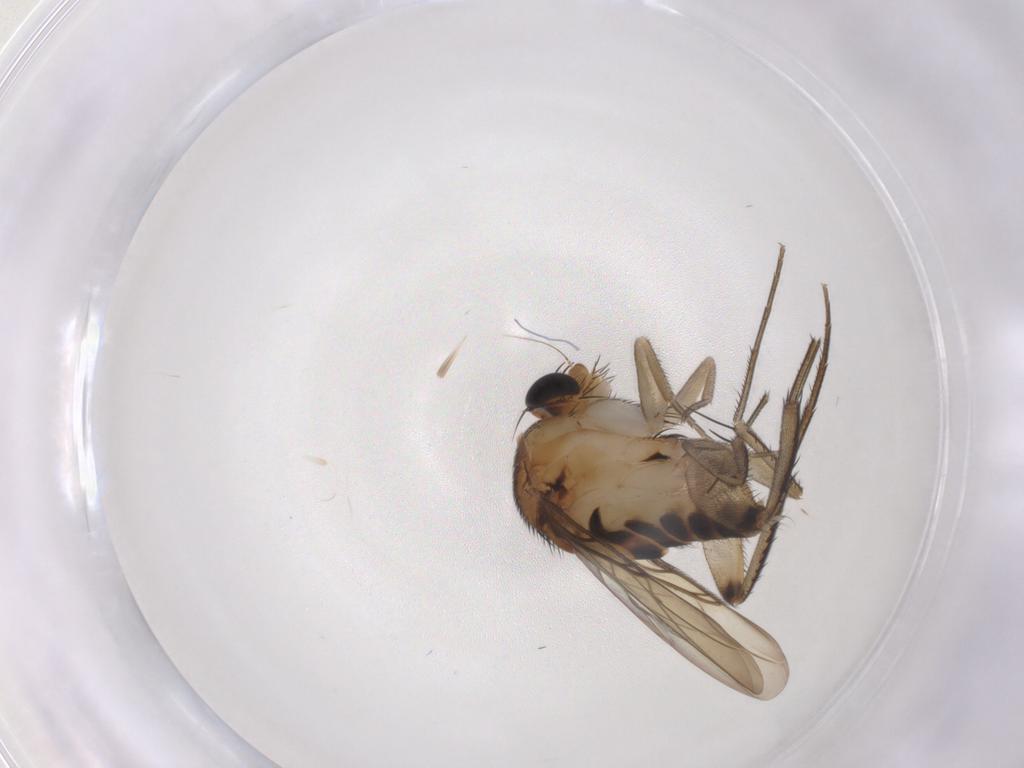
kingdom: Animalia
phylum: Arthropoda
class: Insecta
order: Diptera
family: Phoridae
